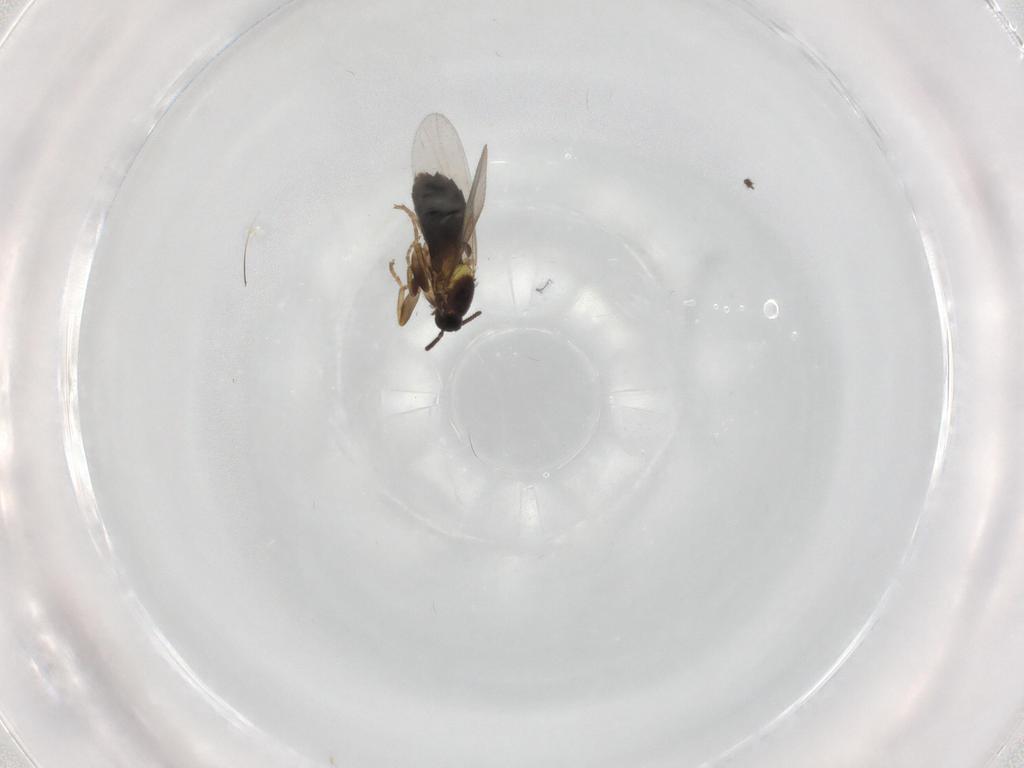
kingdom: Animalia
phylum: Arthropoda
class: Insecta
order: Diptera
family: Scatopsidae
